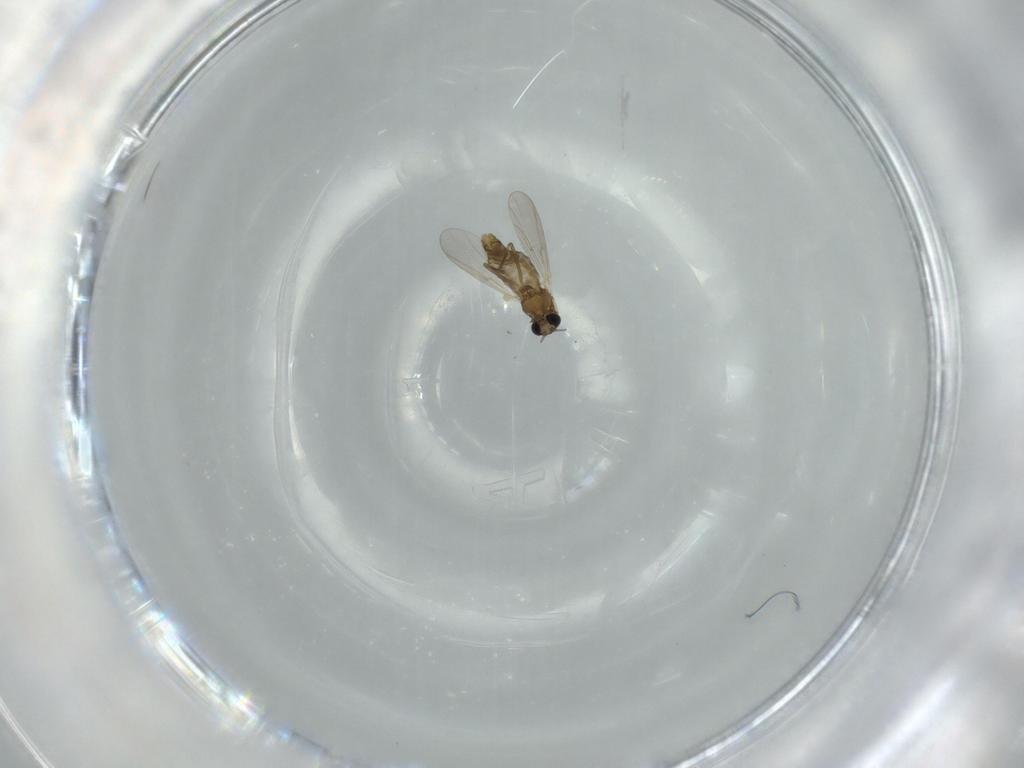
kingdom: Animalia
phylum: Arthropoda
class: Insecta
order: Diptera
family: Chironomidae
